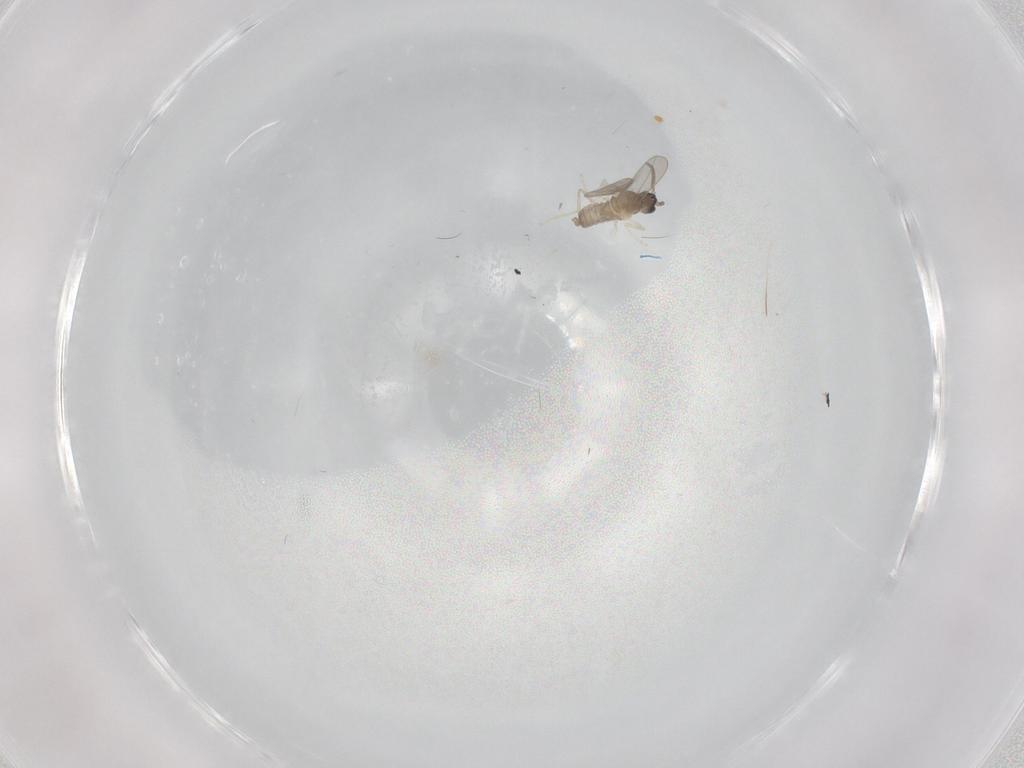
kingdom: Animalia
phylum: Arthropoda
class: Insecta
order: Diptera
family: Cecidomyiidae
